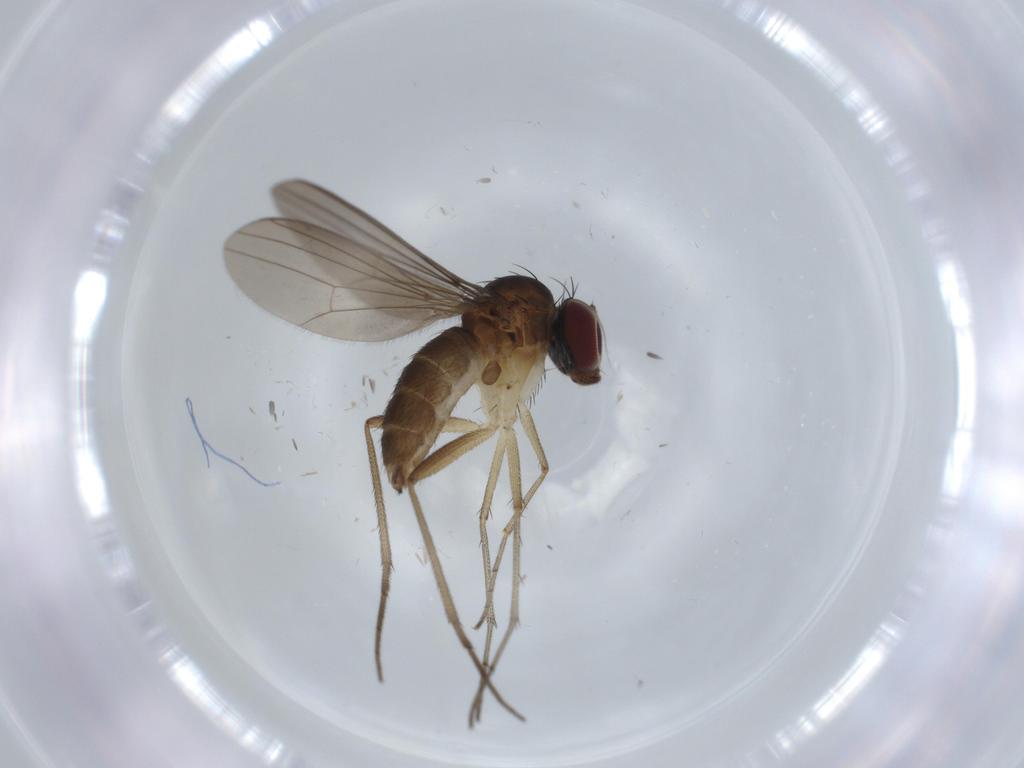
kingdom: Animalia
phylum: Arthropoda
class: Insecta
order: Diptera
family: Dolichopodidae
